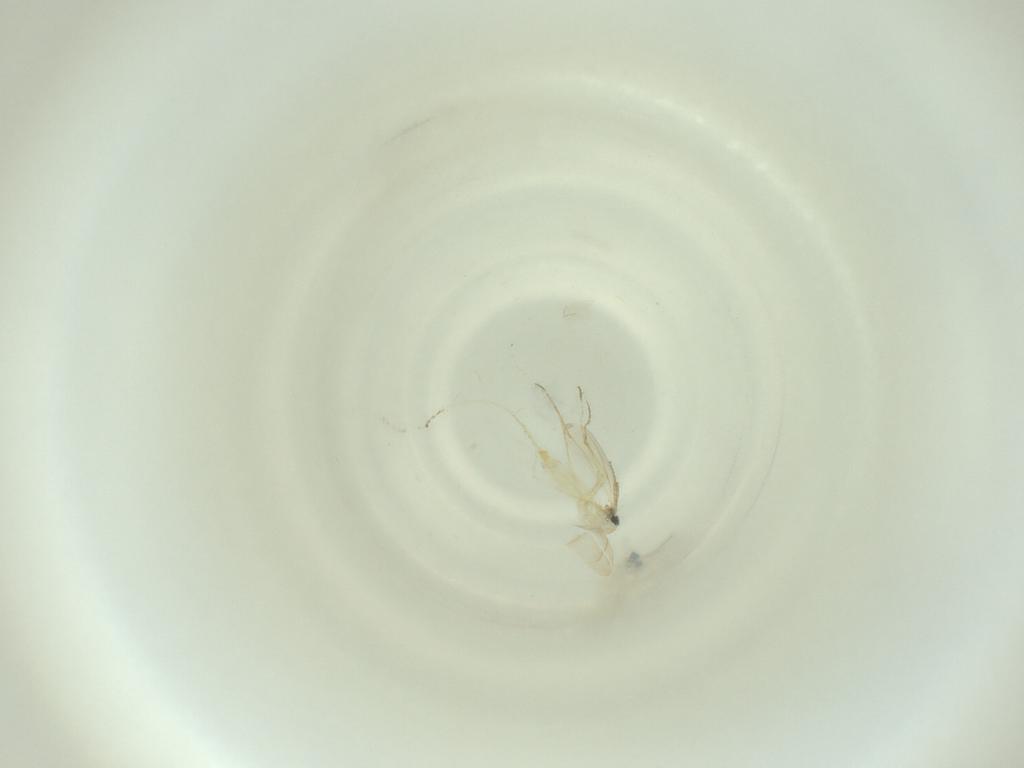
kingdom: Animalia
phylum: Arthropoda
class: Insecta
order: Diptera
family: Cecidomyiidae
